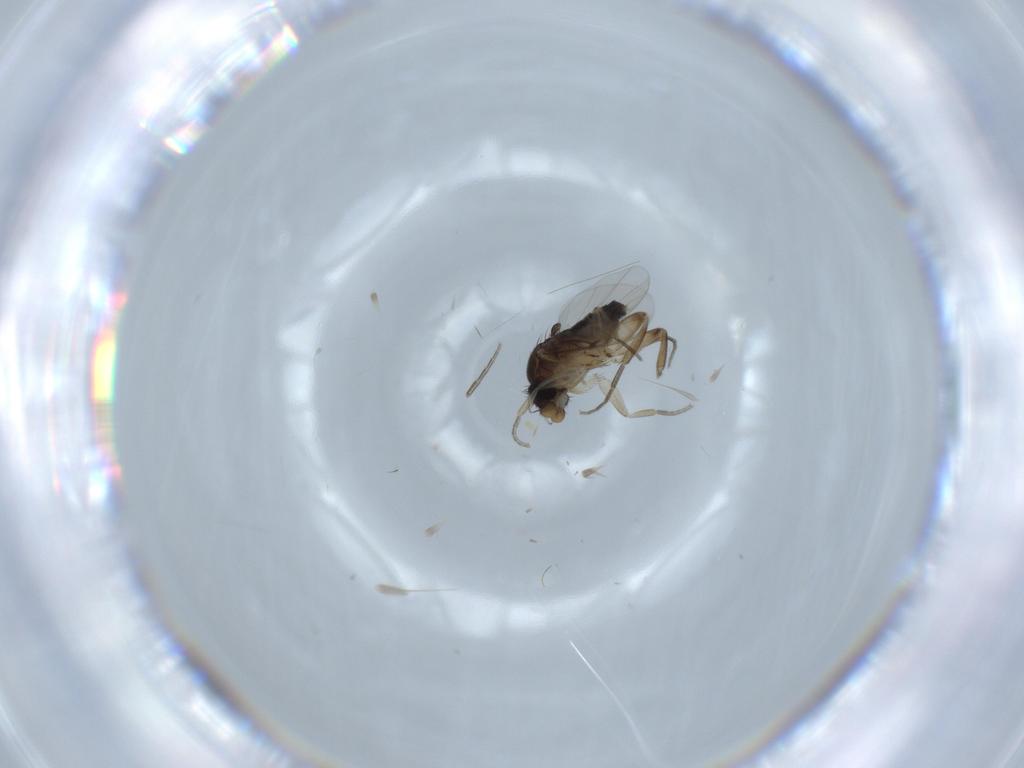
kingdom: Animalia
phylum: Arthropoda
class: Insecta
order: Diptera
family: Phoridae
